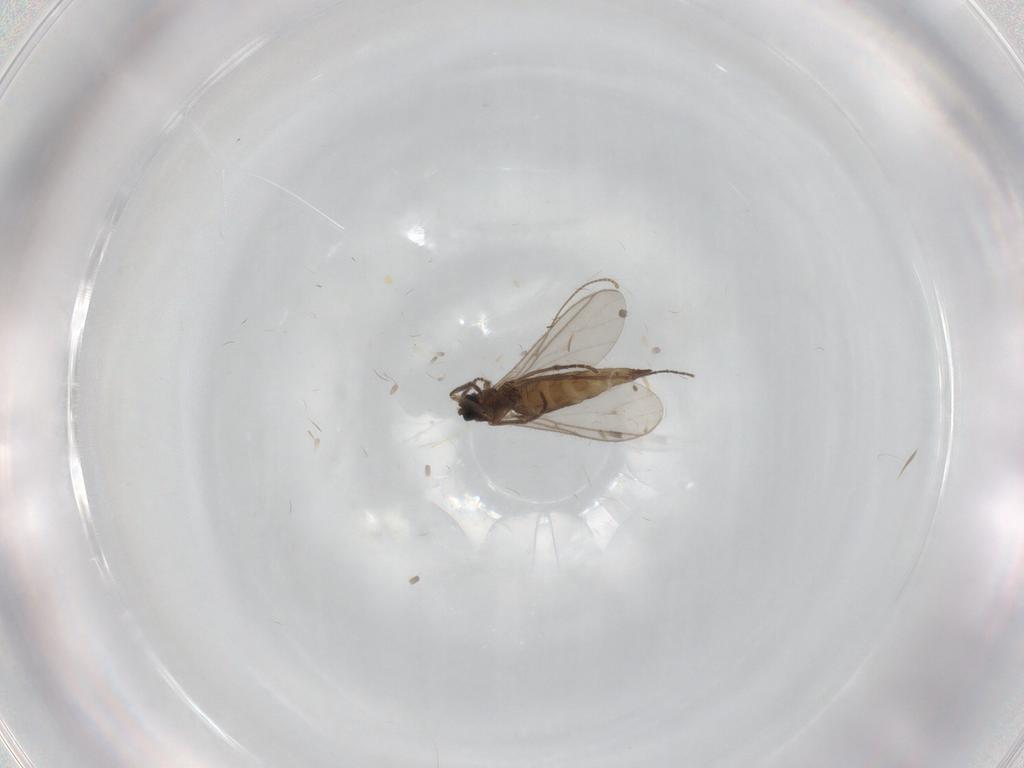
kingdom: Animalia
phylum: Arthropoda
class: Insecta
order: Diptera
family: Chironomidae
